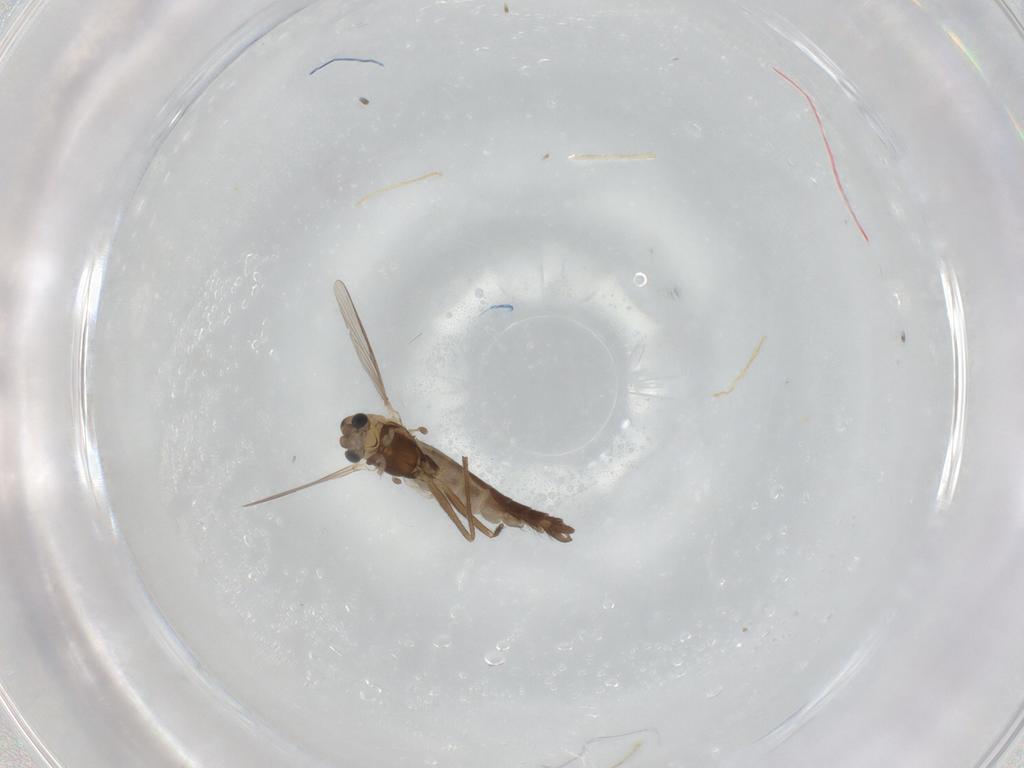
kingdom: Animalia
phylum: Arthropoda
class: Insecta
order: Diptera
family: Chironomidae
